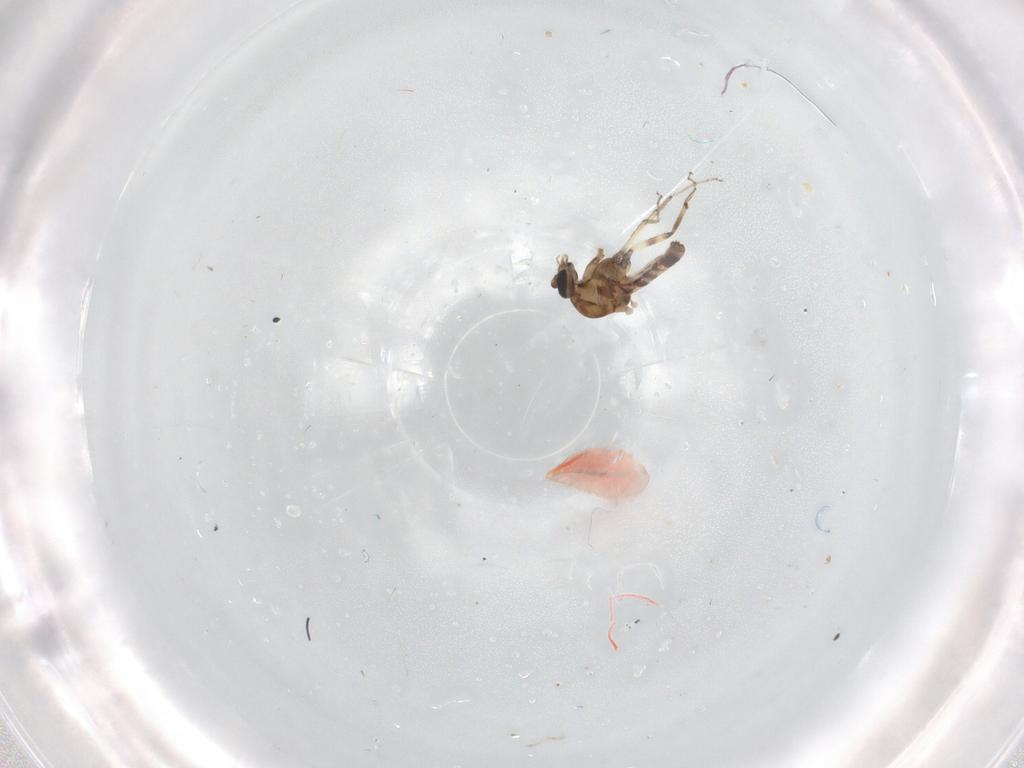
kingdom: Animalia
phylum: Arthropoda
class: Insecta
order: Diptera
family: Ceratopogonidae
